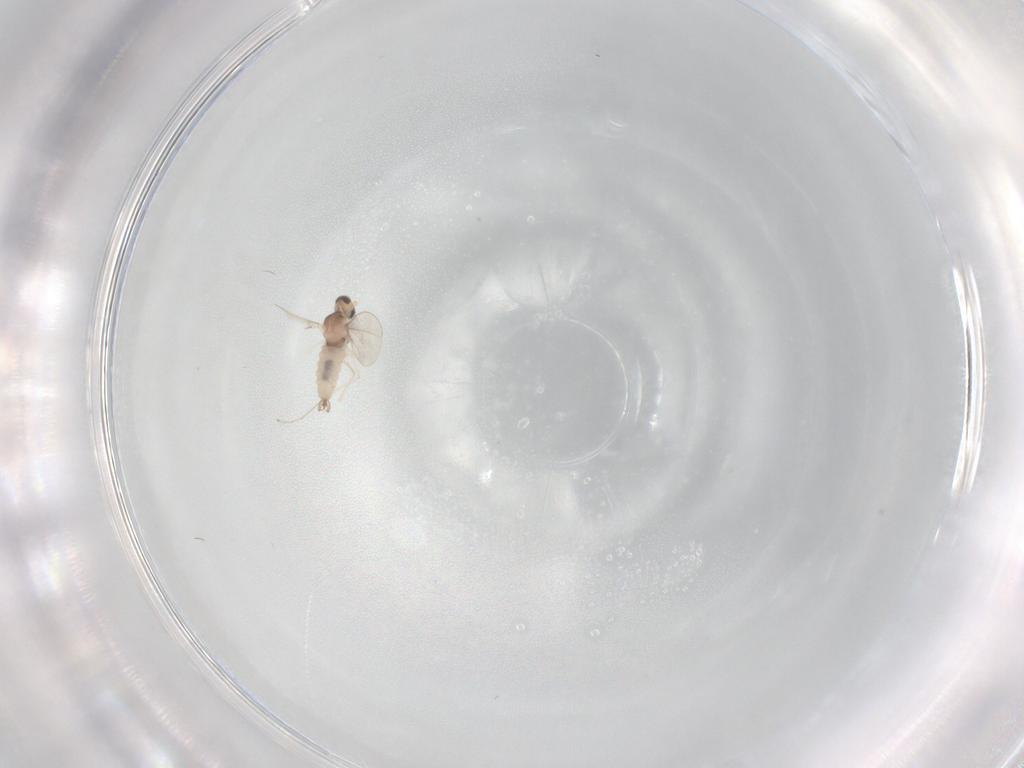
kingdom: Animalia
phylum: Arthropoda
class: Insecta
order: Diptera
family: Cecidomyiidae
